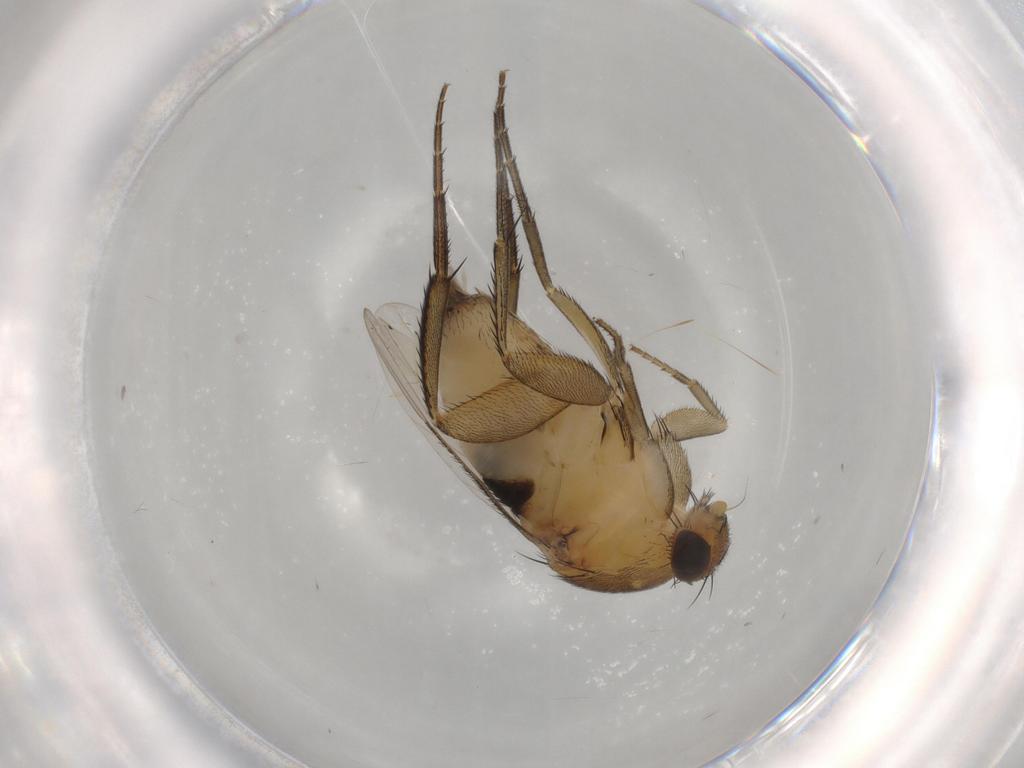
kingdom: Animalia
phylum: Arthropoda
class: Insecta
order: Diptera
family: Phoridae
